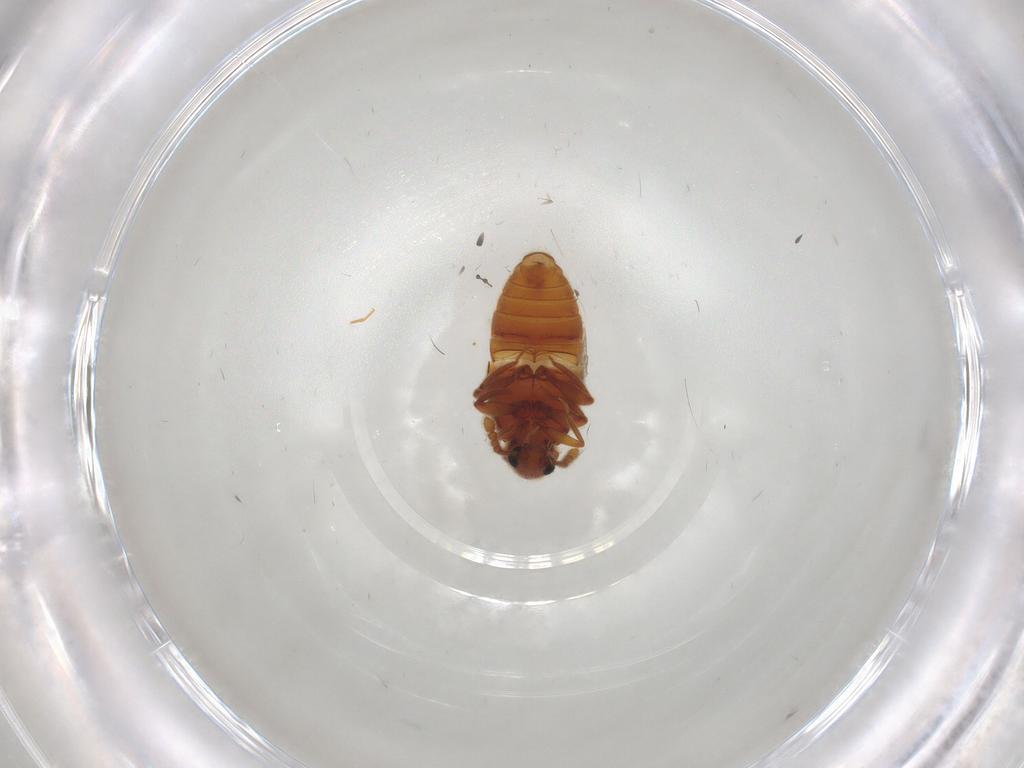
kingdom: Animalia
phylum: Arthropoda
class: Insecta
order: Coleoptera
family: Staphylinidae
